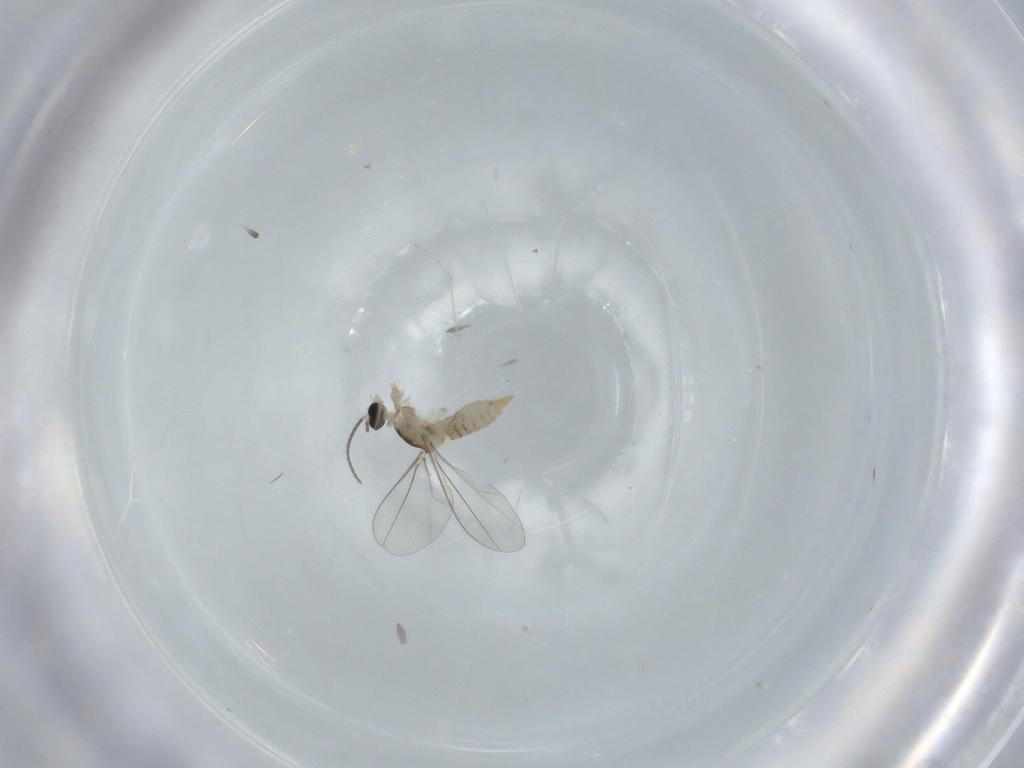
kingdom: Animalia
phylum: Arthropoda
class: Insecta
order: Diptera
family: Cecidomyiidae
